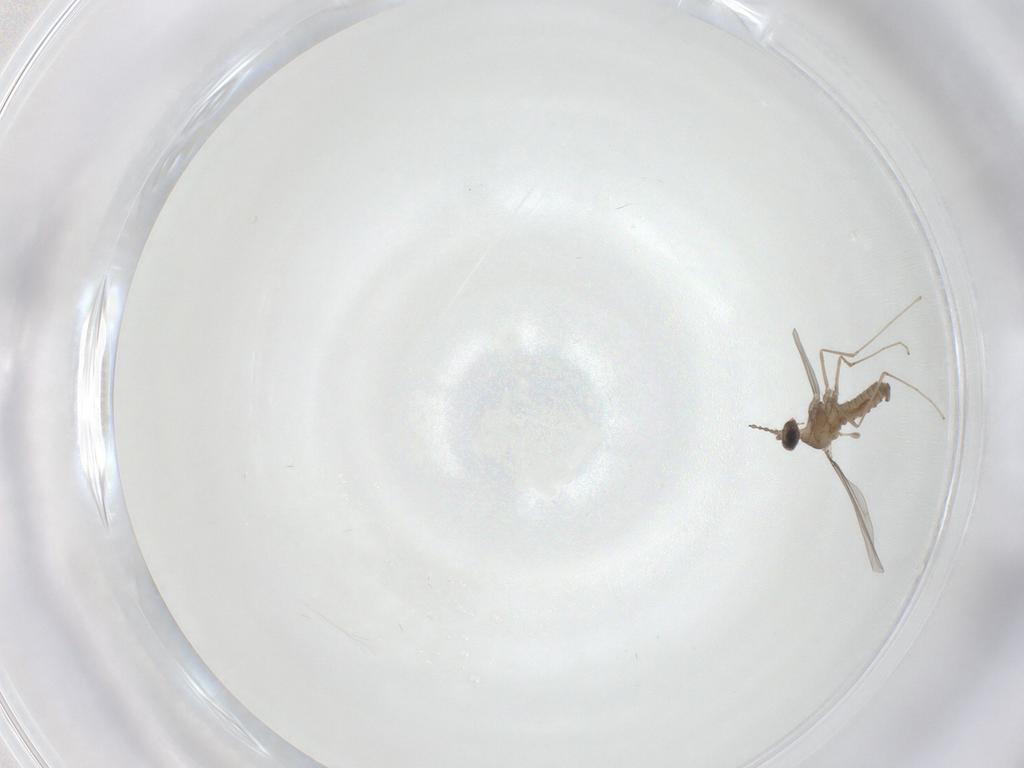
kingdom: Animalia
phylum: Arthropoda
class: Insecta
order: Diptera
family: Cecidomyiidae
